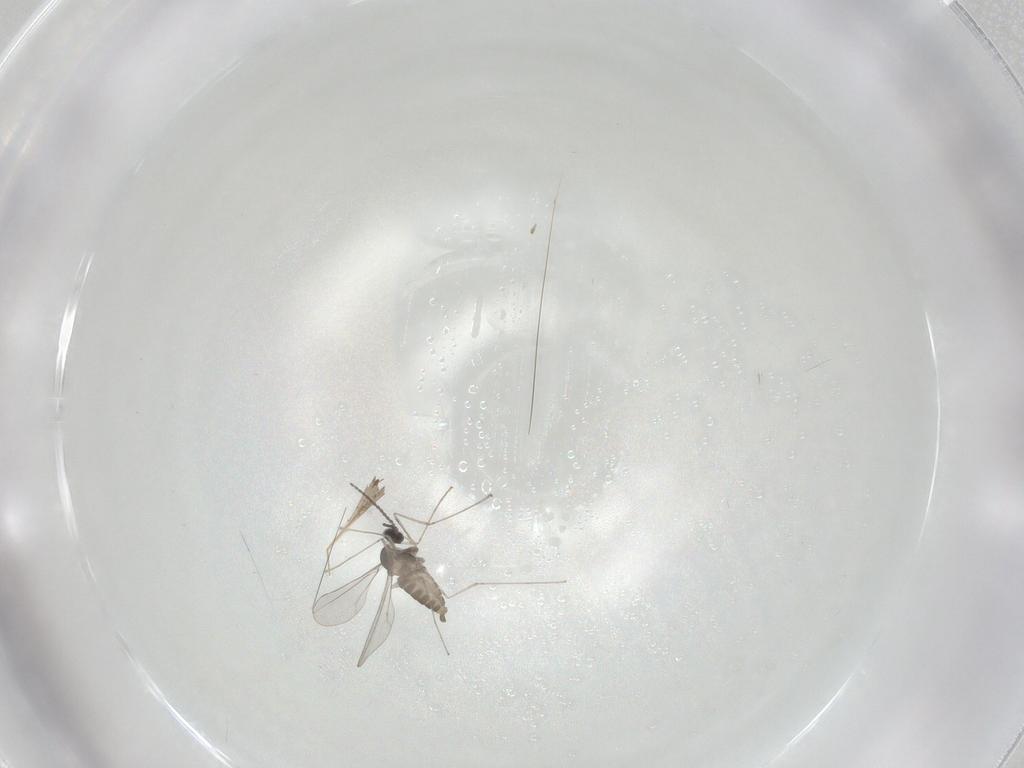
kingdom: Animalia
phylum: Arthropoda
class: Insecta
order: Diptera
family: Cecidomyiidae
